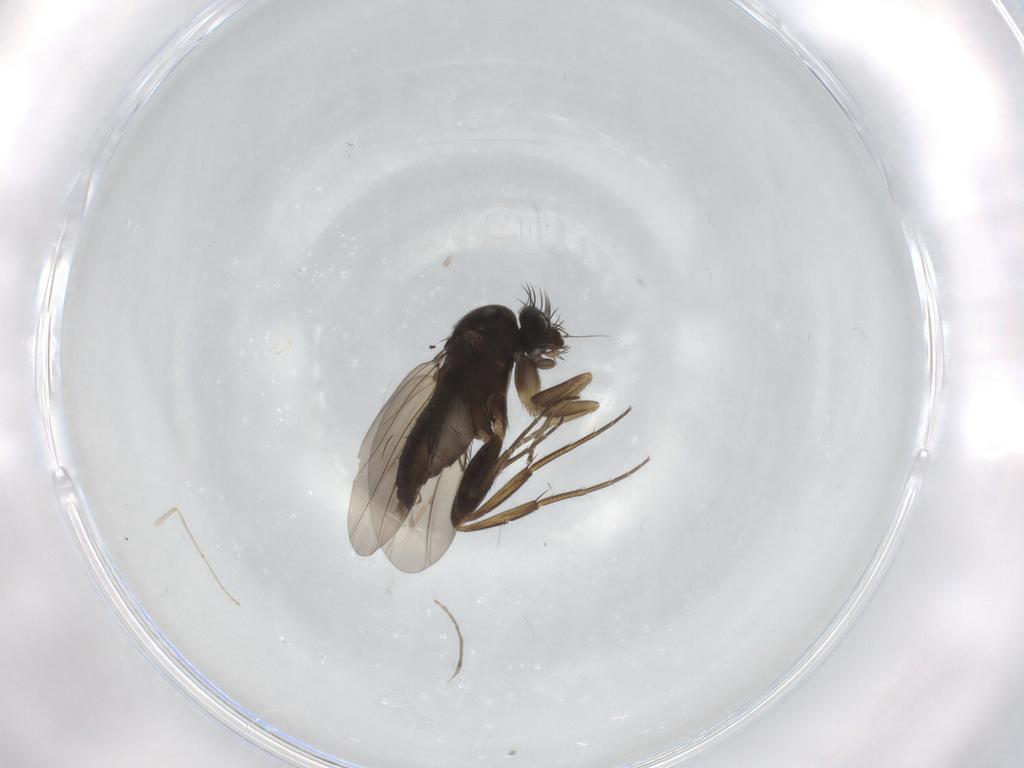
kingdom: Animalia
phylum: Arthropoda
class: Insecta
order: Diptera
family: Phoridae
